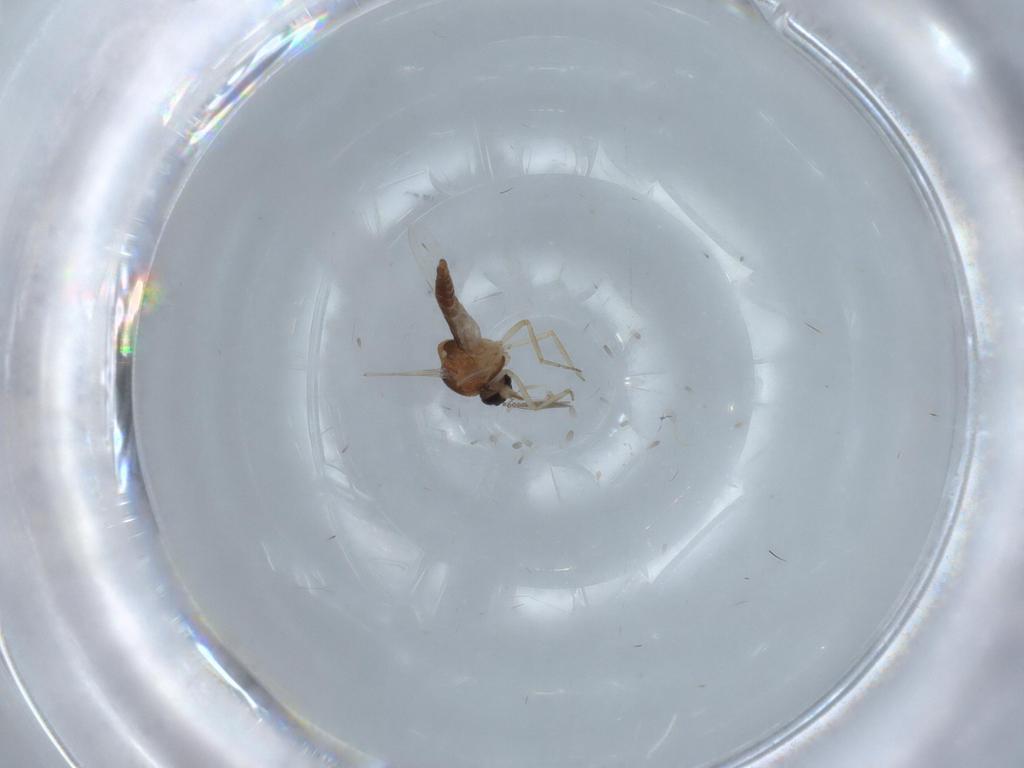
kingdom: Animalia
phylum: Arthropoda
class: Insecta
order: Diptera
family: Ceratopogonidae
